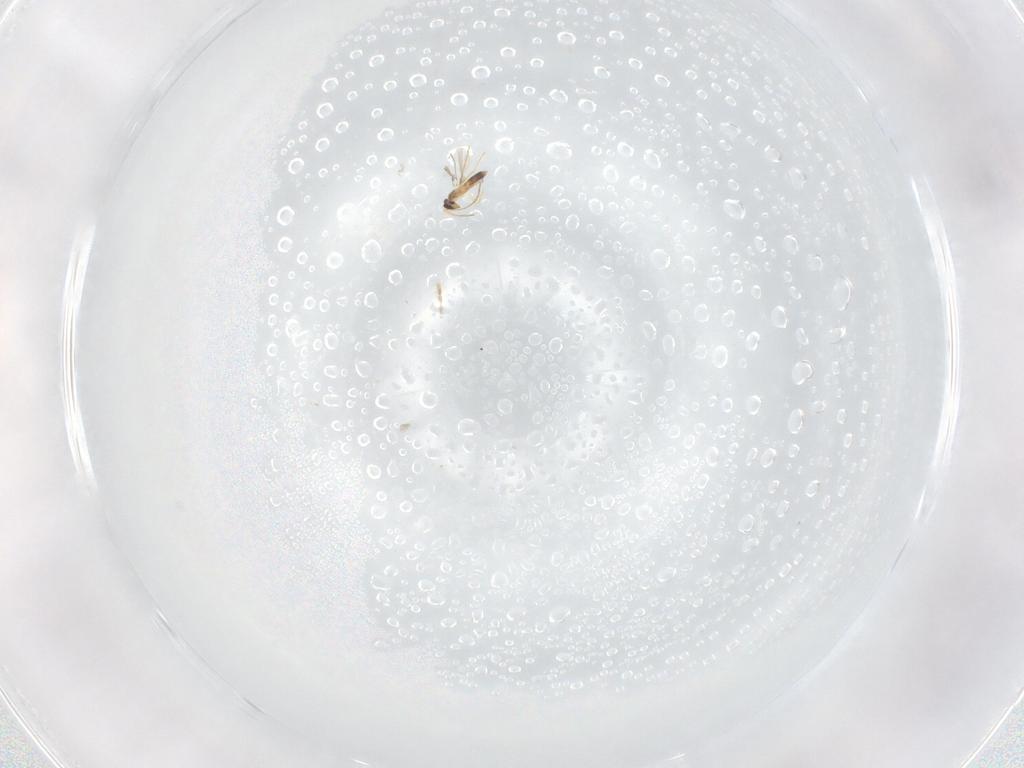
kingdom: Animalia
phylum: Arthropoda
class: Insecta
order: Hymenoptera
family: Mymaridae
